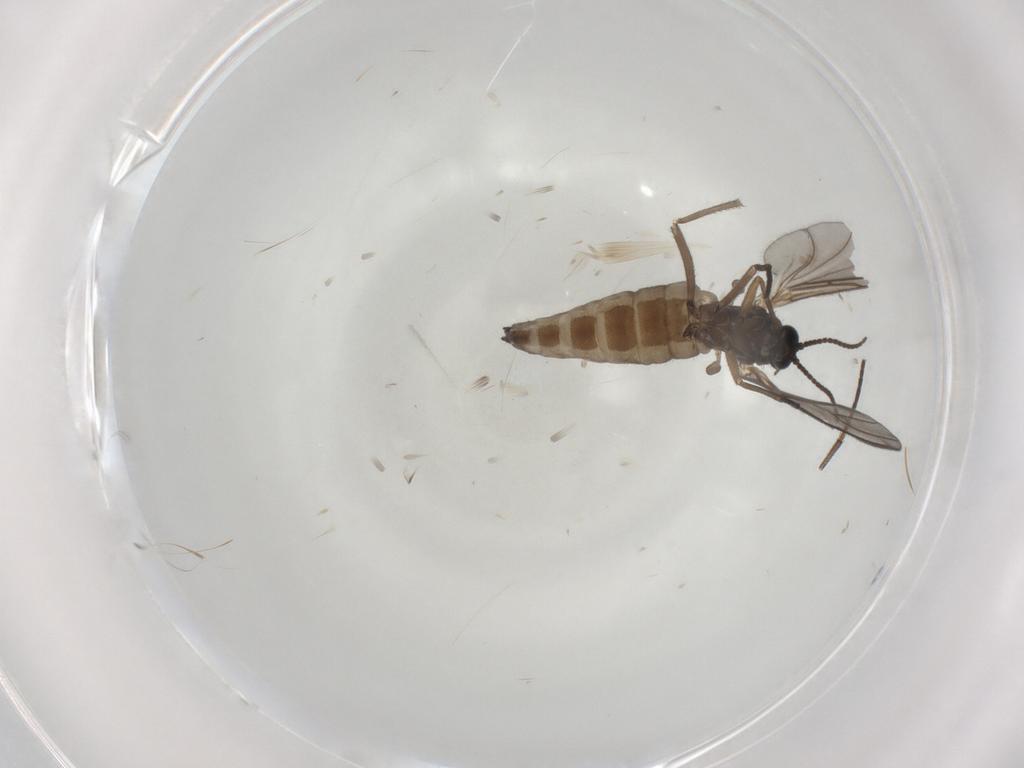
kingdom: Animalia
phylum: Arthropoda
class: Insecta
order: Diptera
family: Sciaridae
